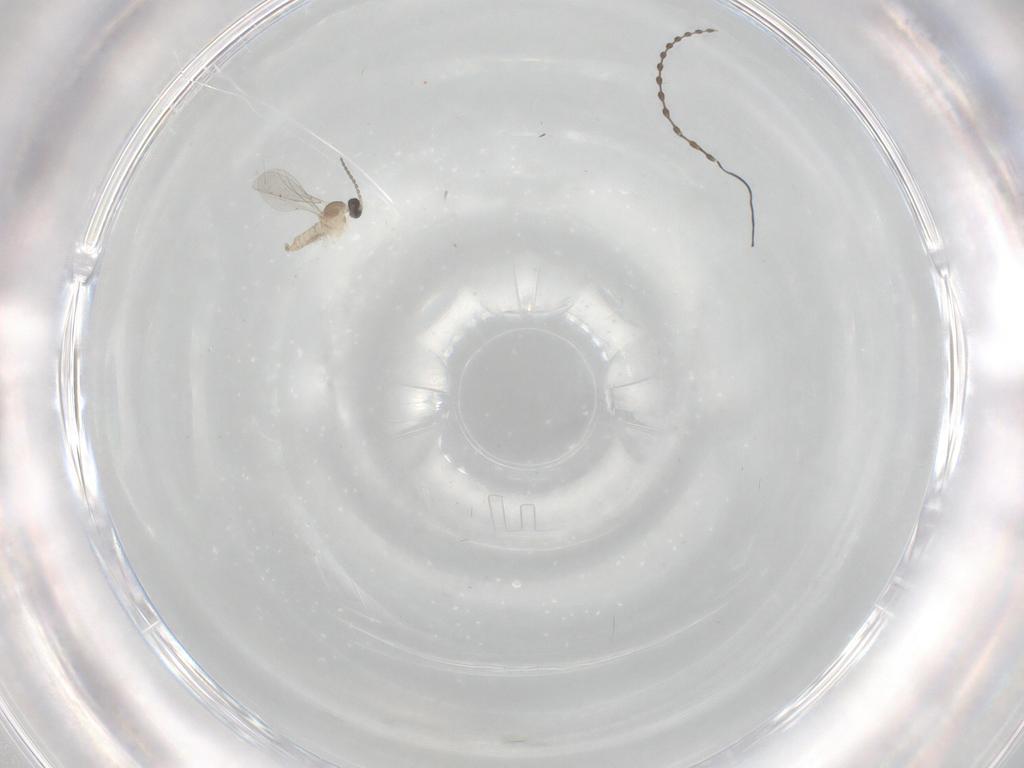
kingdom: Animalia
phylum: Arthropoda
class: Insecta
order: Diptera
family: Cecidomyiidae
